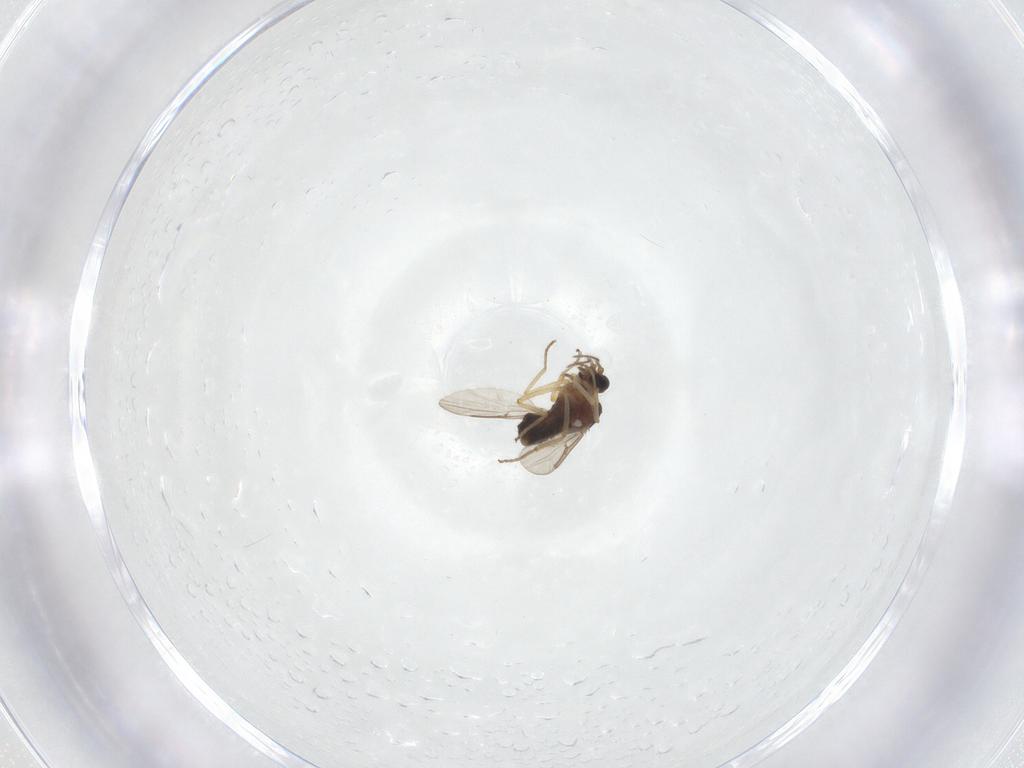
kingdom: Animalia
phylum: Arthropoda
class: Insecta
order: Diptera
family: Ceratopogonidae
